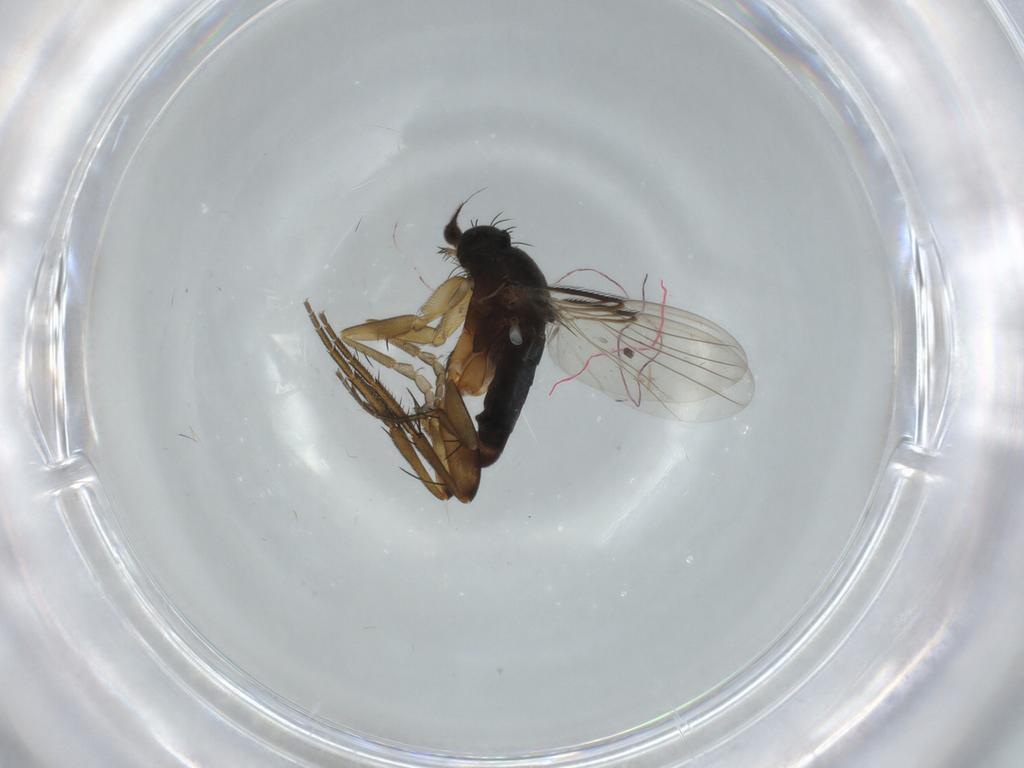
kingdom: Animalia
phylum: Arthropoda
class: Insecta
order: Diptera
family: Phoridae
